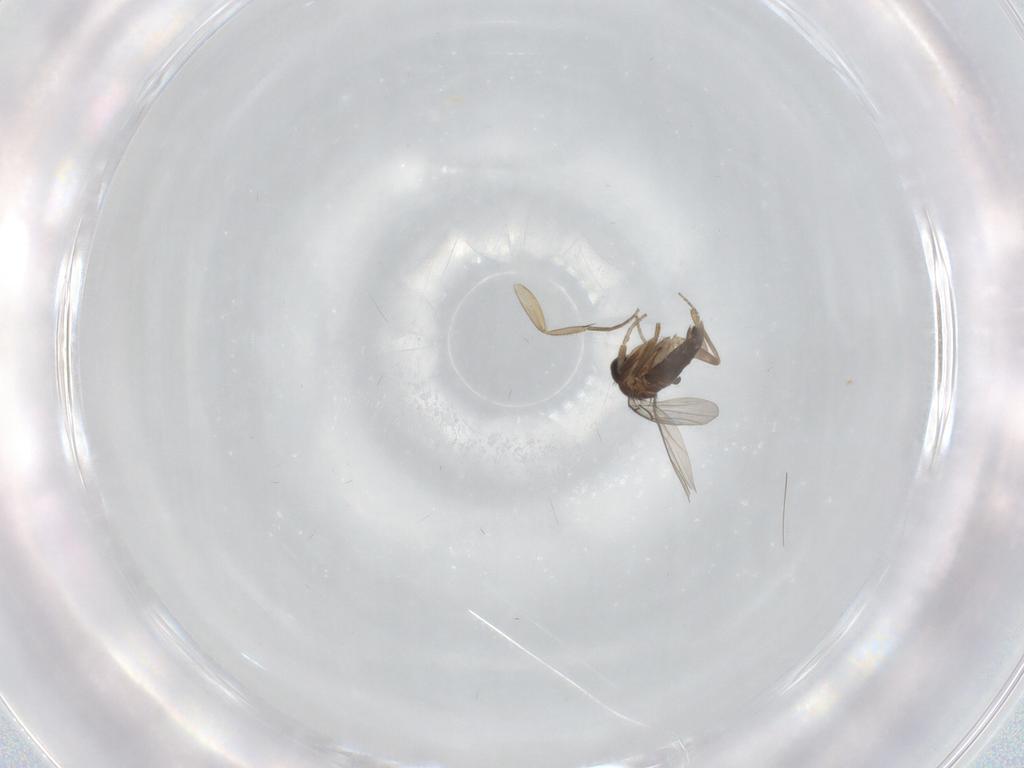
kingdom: Animalia
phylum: Arthropoda
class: Insecta
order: Diptera
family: Phoridae
